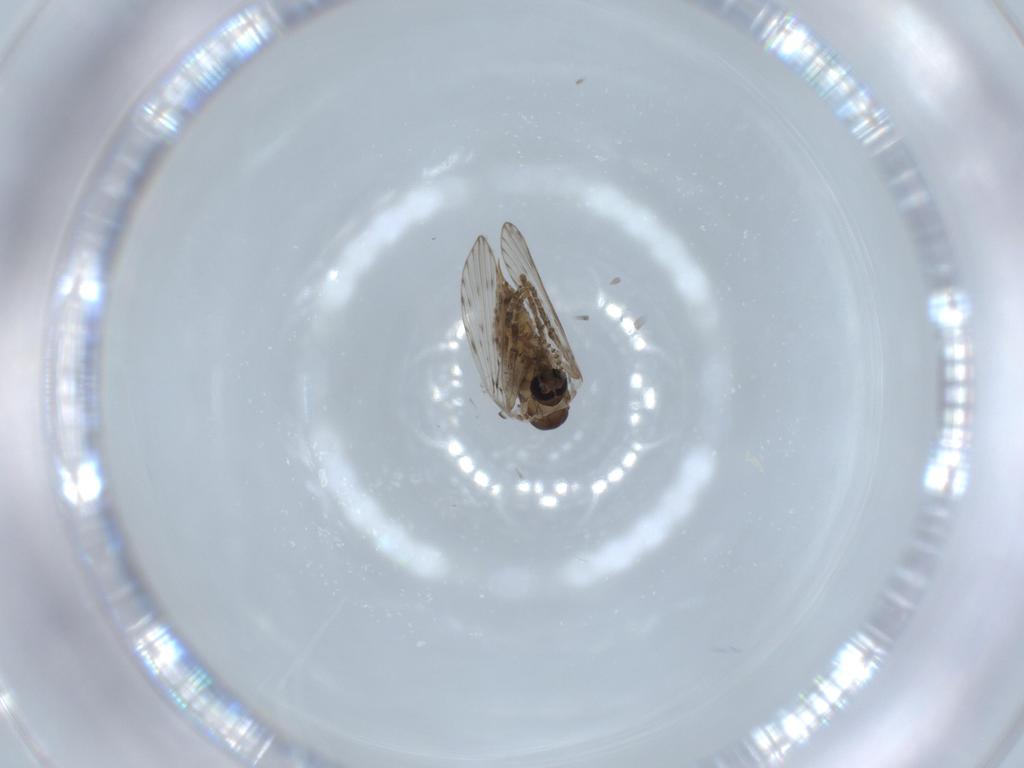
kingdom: Animalia
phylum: Arthropoda
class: Insecta
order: Diptera
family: Psychodidae
